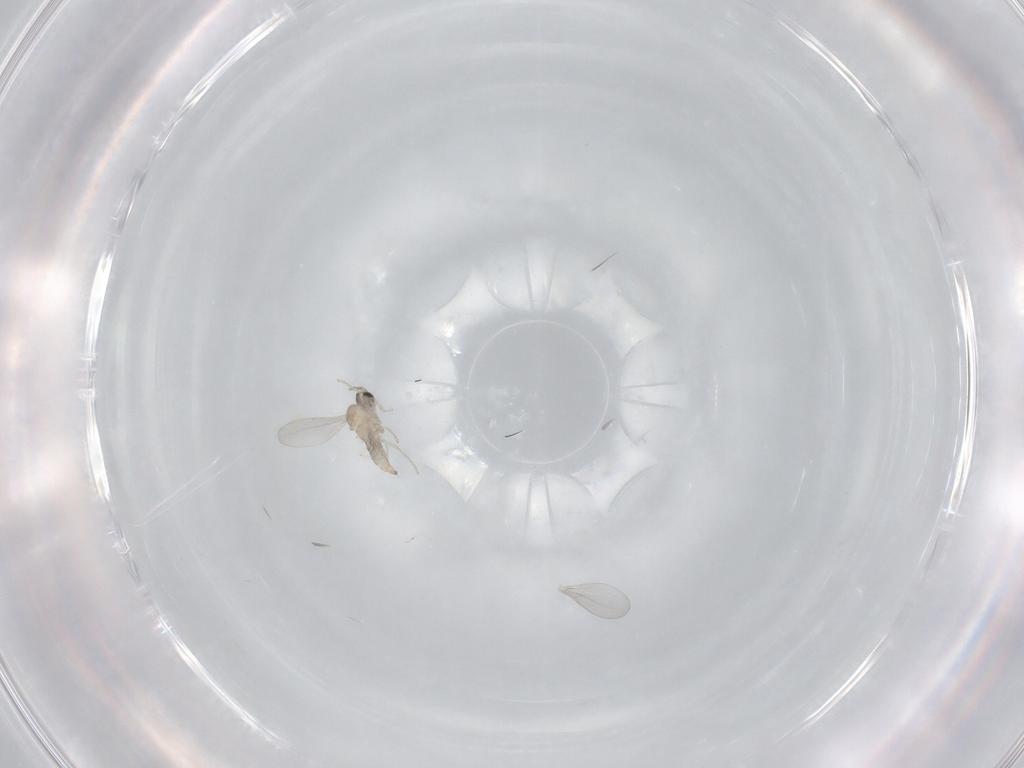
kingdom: Animalia
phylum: Arthropoda
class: Insecta
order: Diptera
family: Cecidomyiidae
